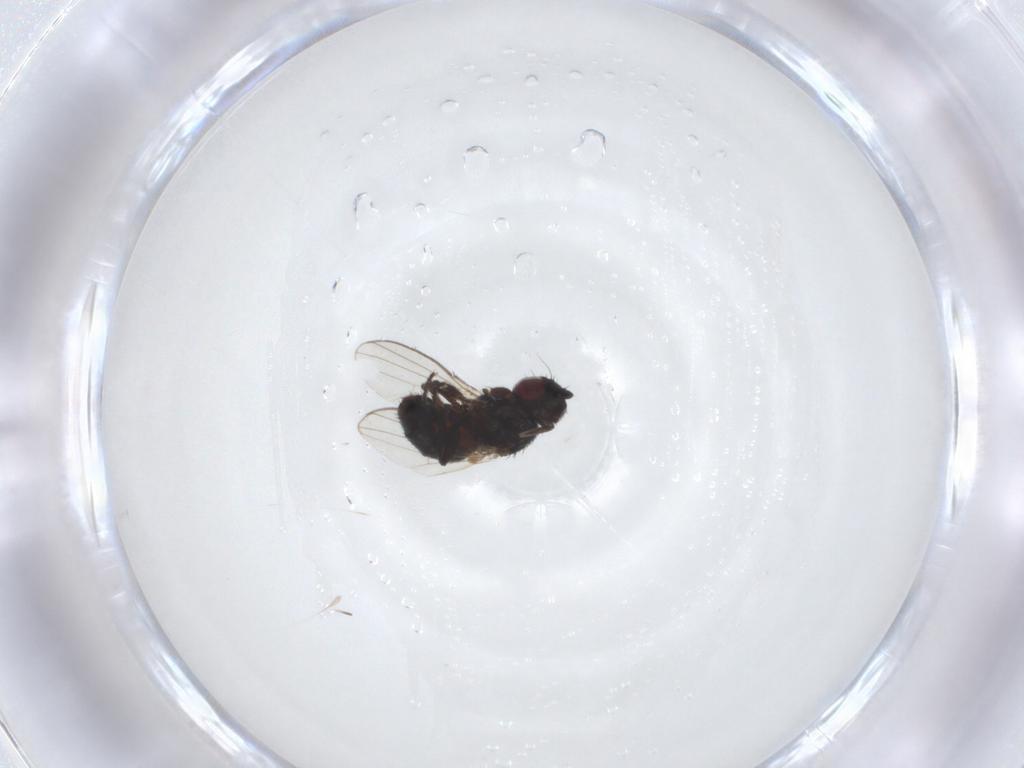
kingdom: Animalia
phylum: Arthropoda
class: Insecta
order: Diptera
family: Milichiidae
